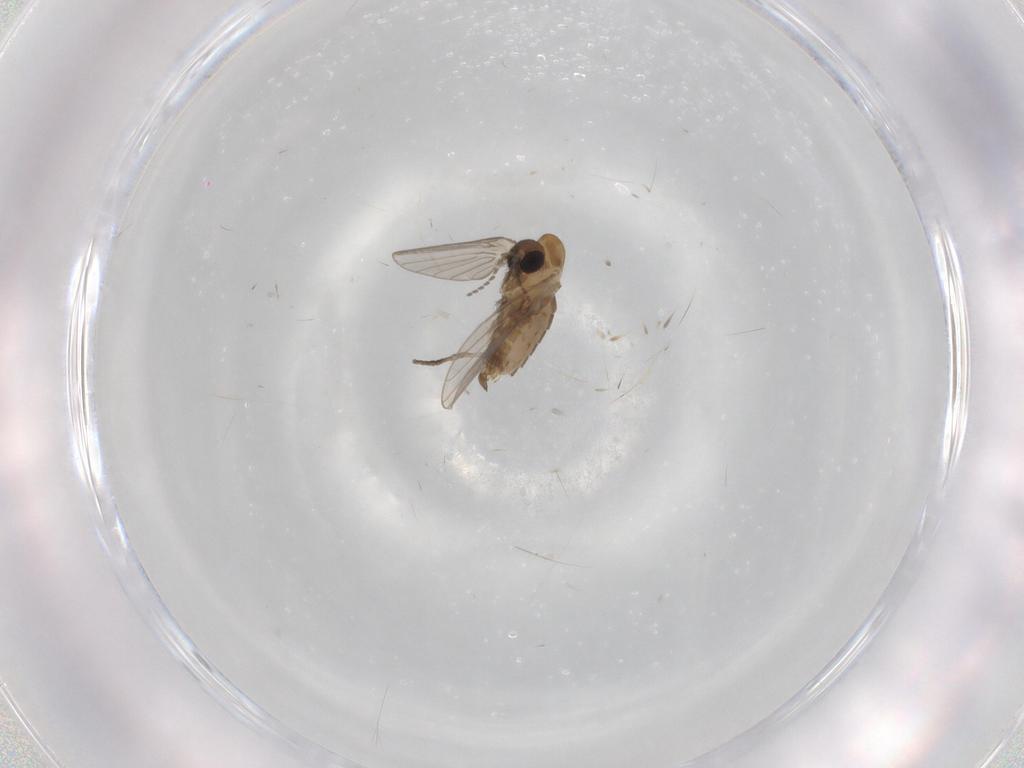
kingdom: Animalia
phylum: Arthropoda
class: Insecta
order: Diptera
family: Psychodidae
